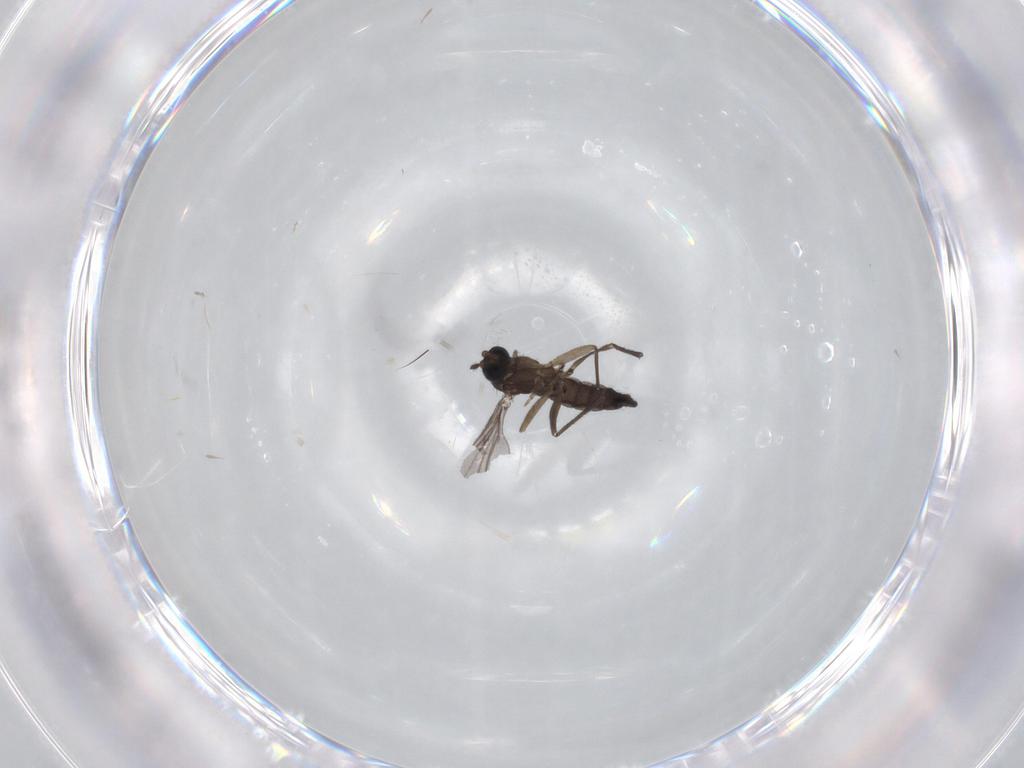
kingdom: Animalia
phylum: Arthropoda
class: Insecta
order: Diptera
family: Sciaridae
